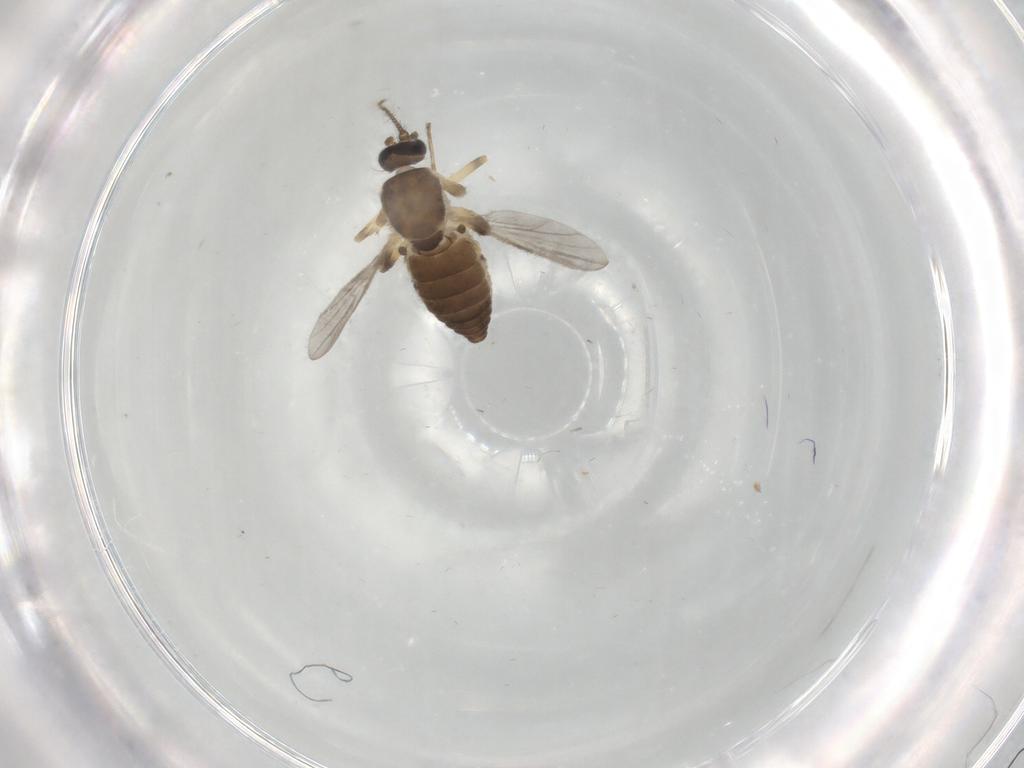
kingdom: Animalia
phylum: Arthropoda
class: Insecta
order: Diptera
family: Ceratopogonidae
